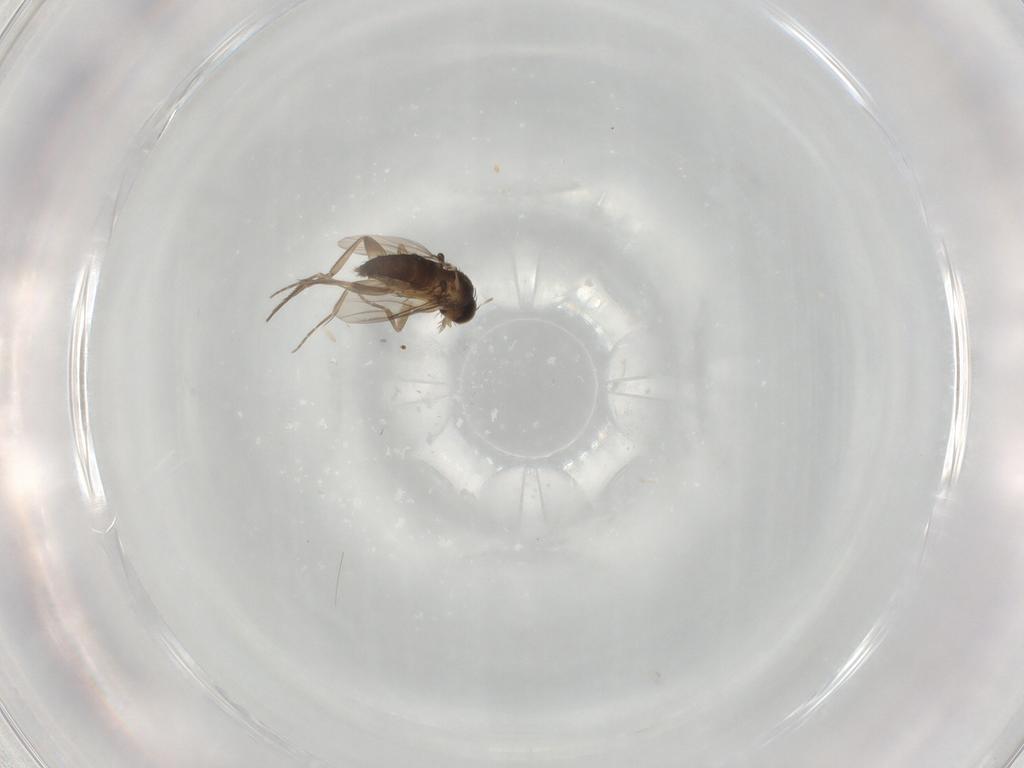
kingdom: Animalia
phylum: Arthropoda
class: Insecta
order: Diptera
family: Phoridae
